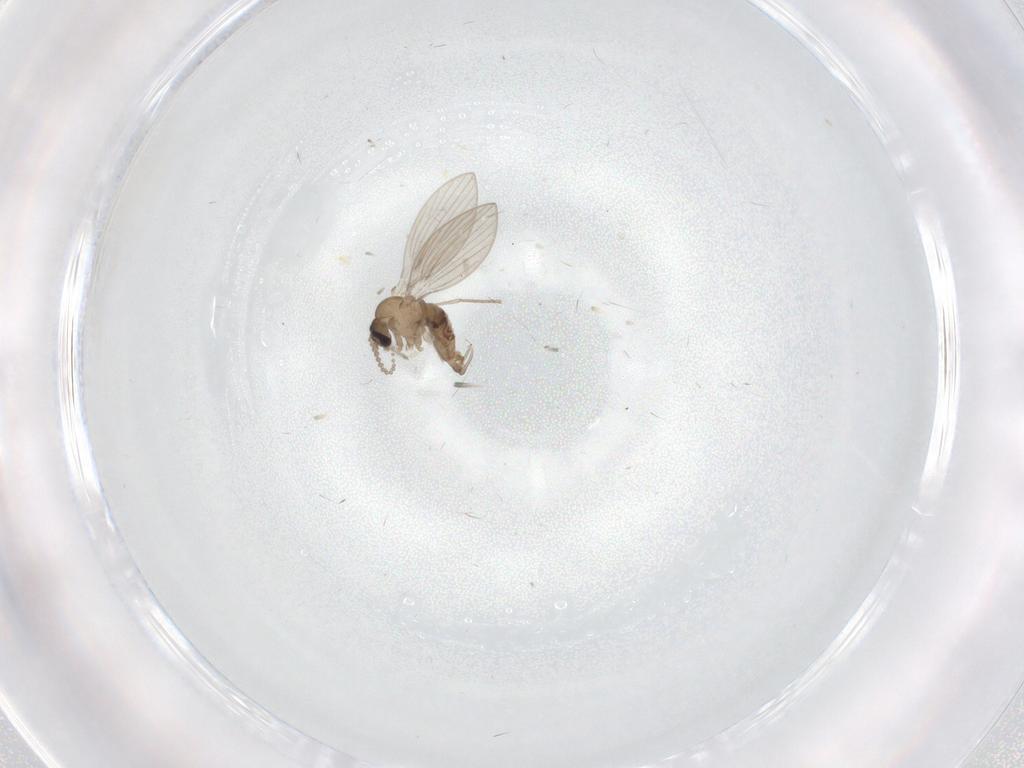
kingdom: Animalia
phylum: Arthropoda
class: Insecta
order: Diptera
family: Psychodidae
